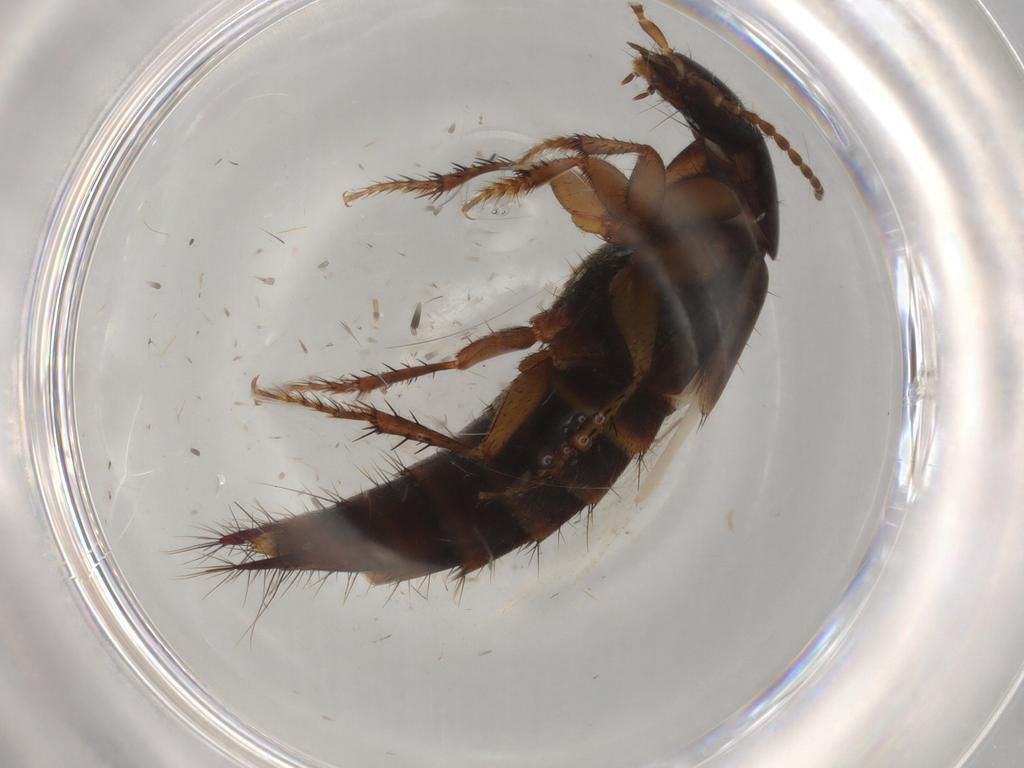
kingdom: Animalia
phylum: Arthropoda
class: Insecta
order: Coleoptera
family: Staphylinidae
